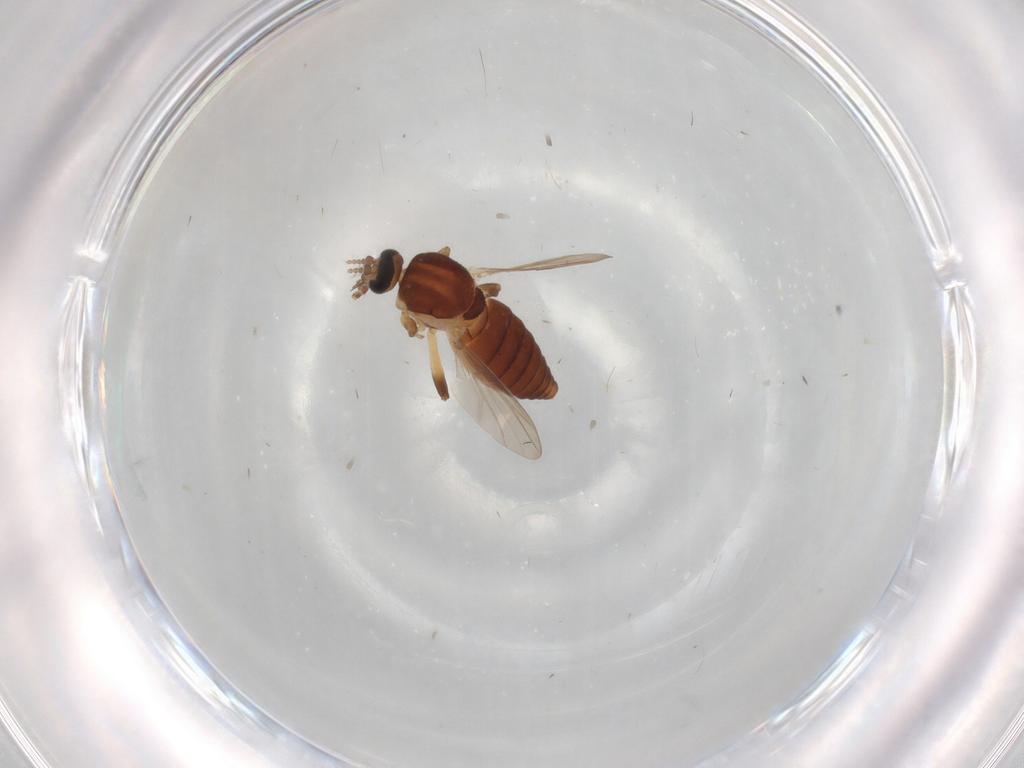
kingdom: Animalia
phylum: Arthropoda
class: Insecta
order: Diptera
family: Ceratopogonidae
